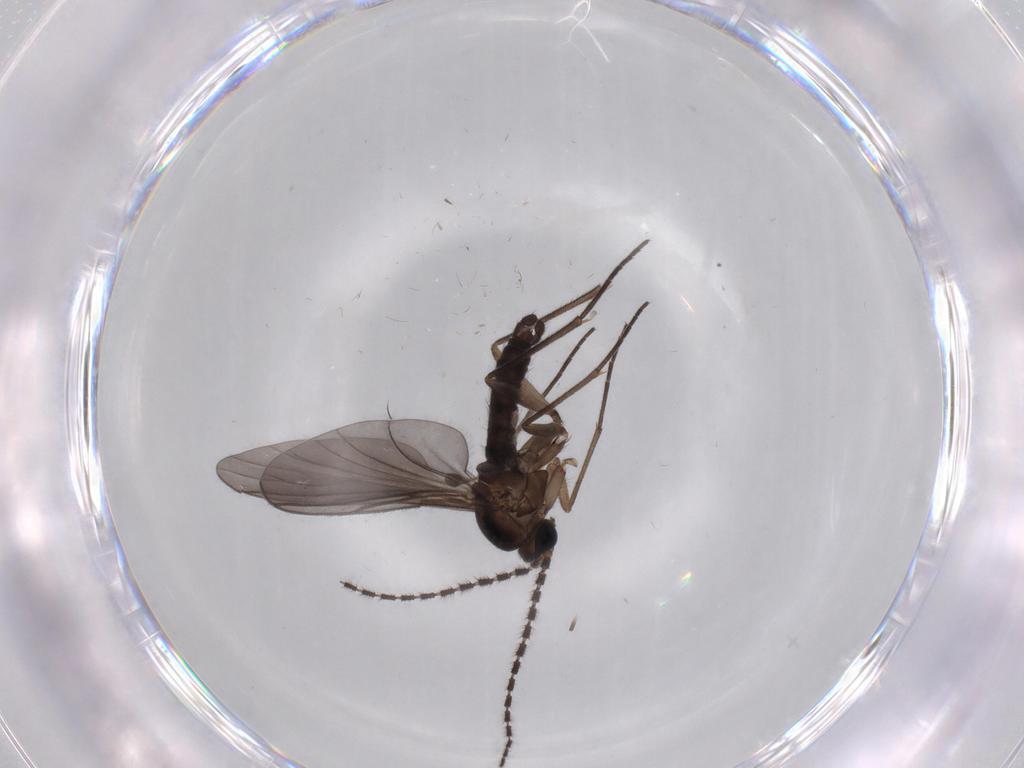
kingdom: Animalia
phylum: Arthropoda
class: Insecta
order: Diptera
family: Sciaridae
